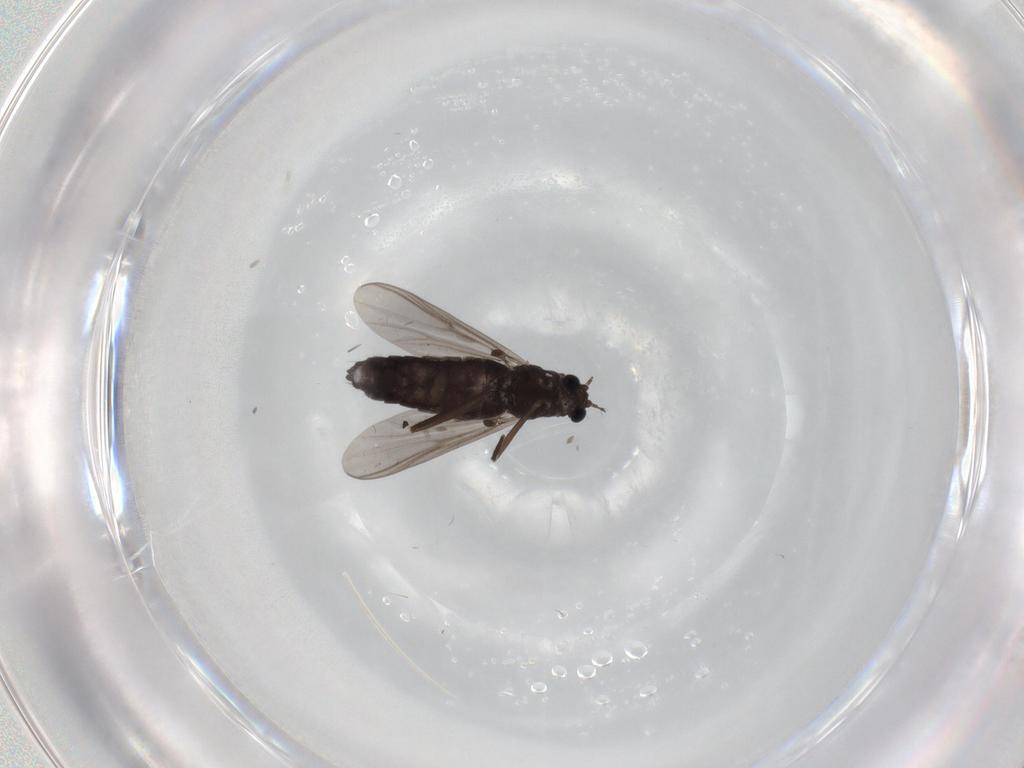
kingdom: Animalia
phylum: Arthropoda
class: Insecta
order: Diptera
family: Chironomidae
